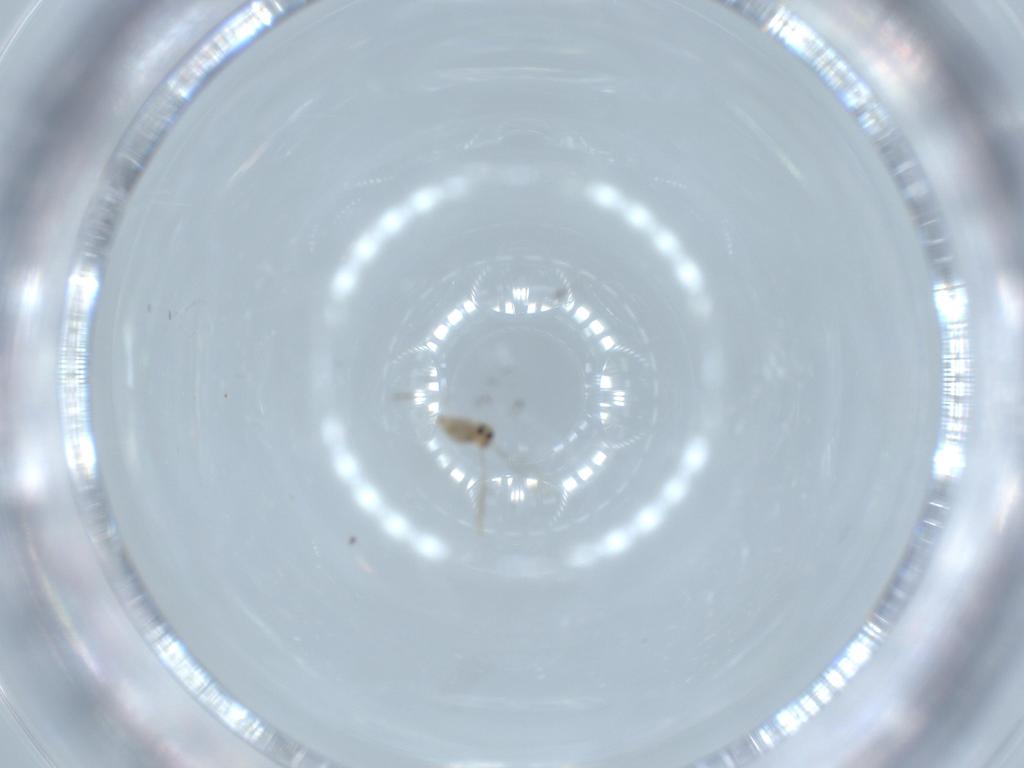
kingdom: Animalia
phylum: Arthropoda
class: Insecta
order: Diptera
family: Cecidomyiidae
